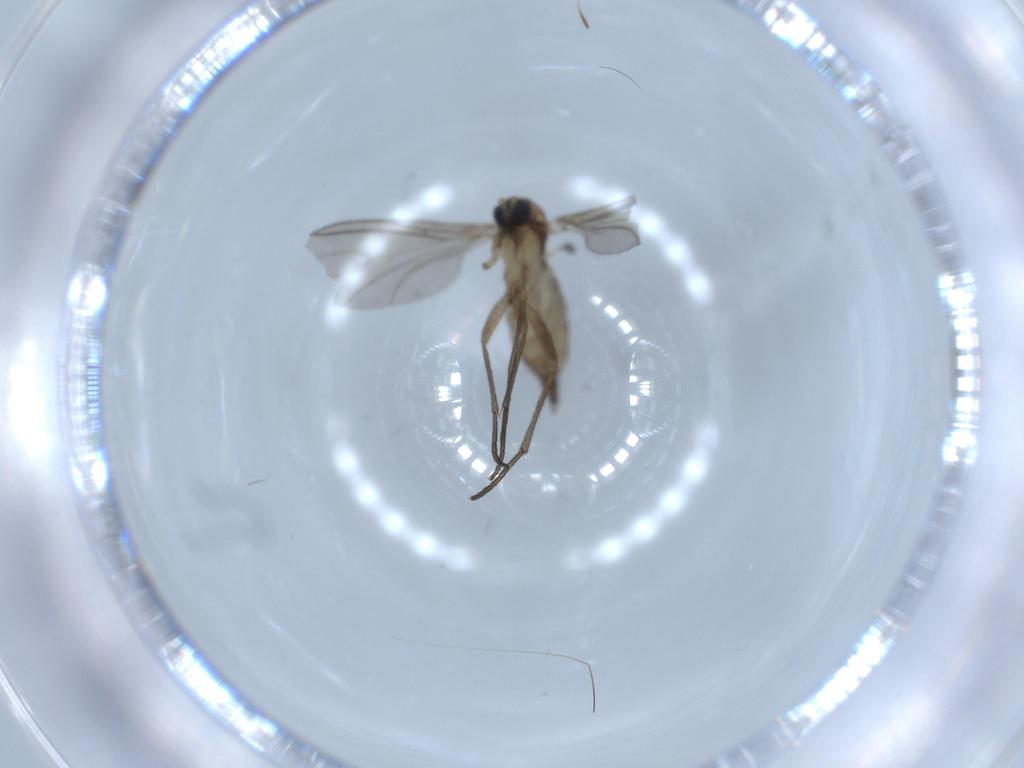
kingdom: Animalia
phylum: Arthropoda
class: Insecta
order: Diptera
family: Sciaridae
